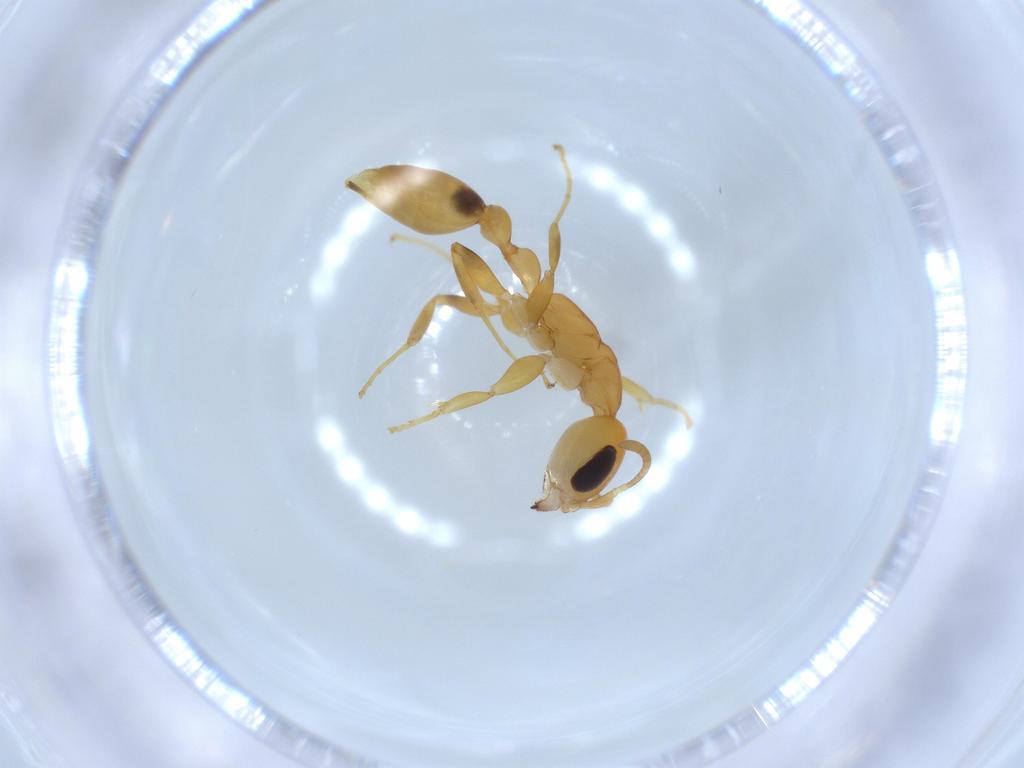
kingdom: Animalia
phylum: Arthropoda
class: Insecta
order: Hymenoptera
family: Formicidae
